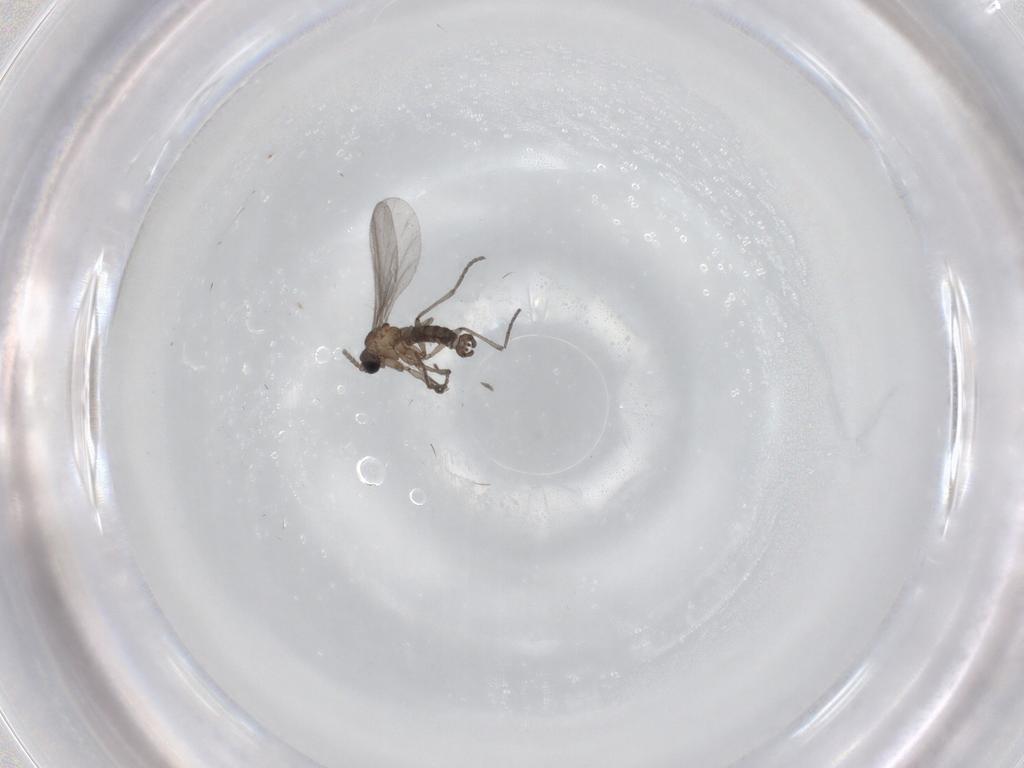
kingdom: Animalia
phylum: Arthropoda
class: Insecta
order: Diptera
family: Sciaridae
